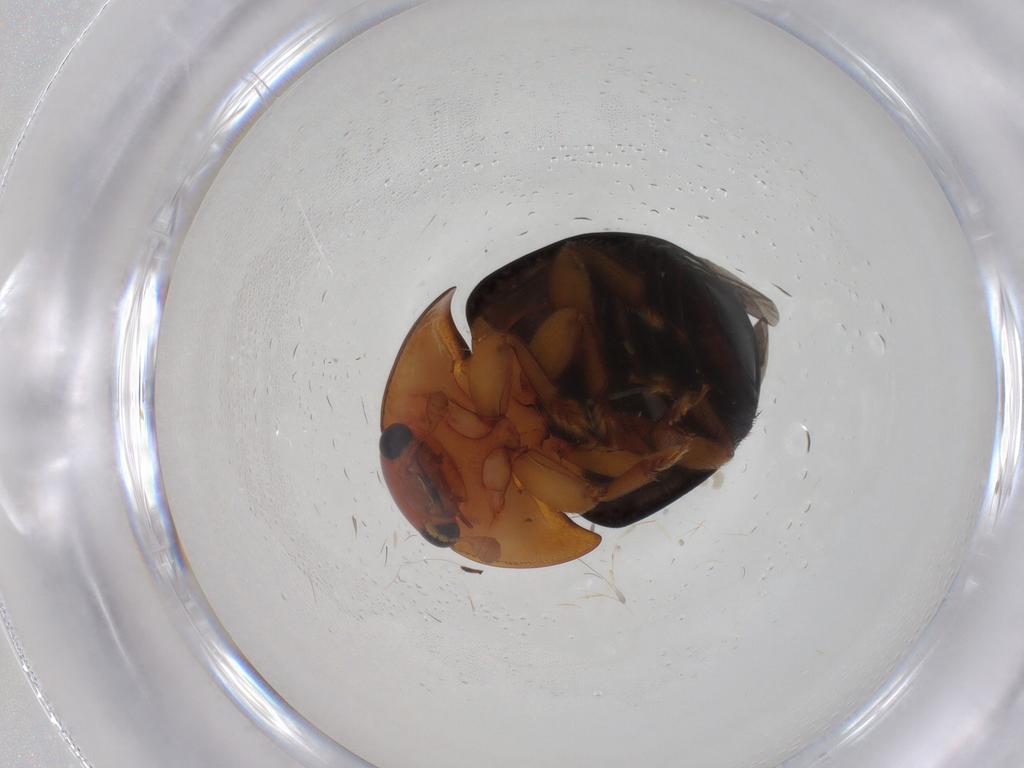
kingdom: Animalia
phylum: Arthropoda
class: Insecta
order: Coleoptera
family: Nitidulidae
